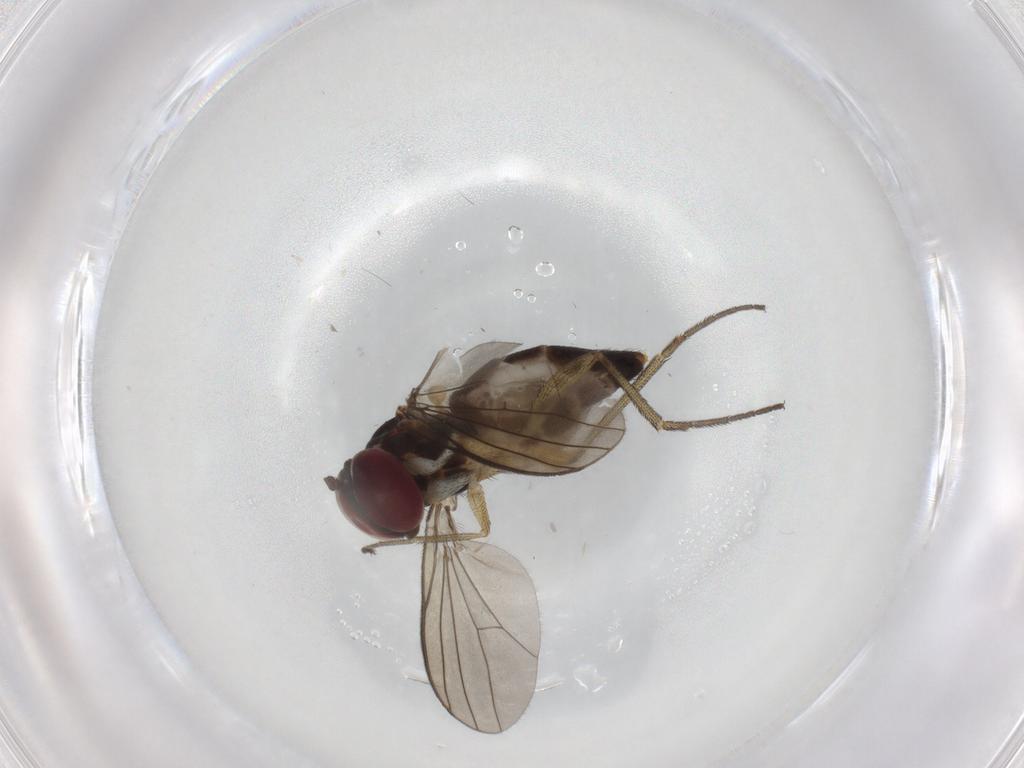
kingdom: Animalia
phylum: Arthropoda
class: Insecta
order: Diptera
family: Dolichopodidae
